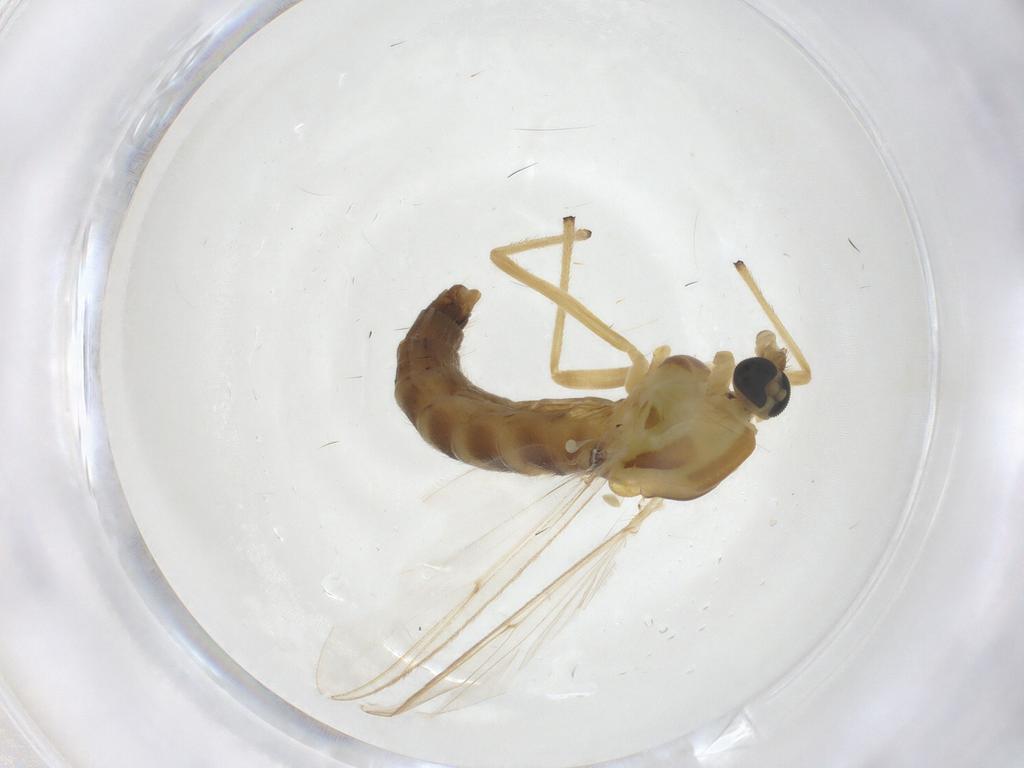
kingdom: Animalia
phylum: Arthropoda
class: Insecta
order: Diptera
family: Chironomidae
